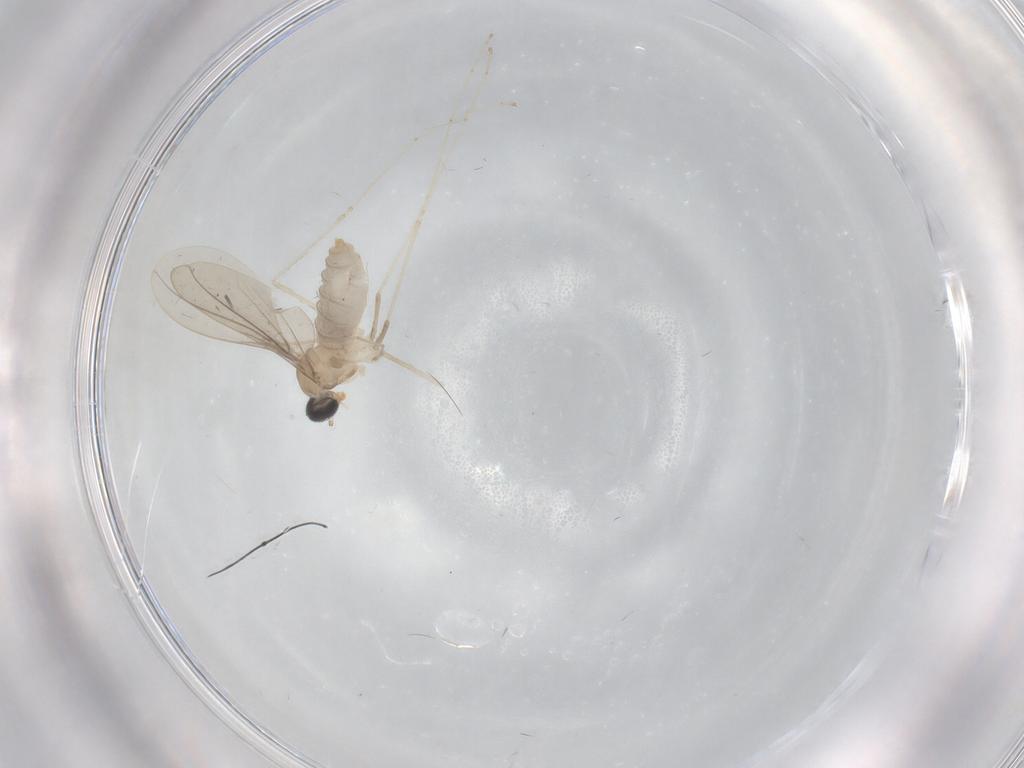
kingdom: Animalia
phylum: Arthropoda
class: Insecta
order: Diptera
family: Cecidomyiidae
